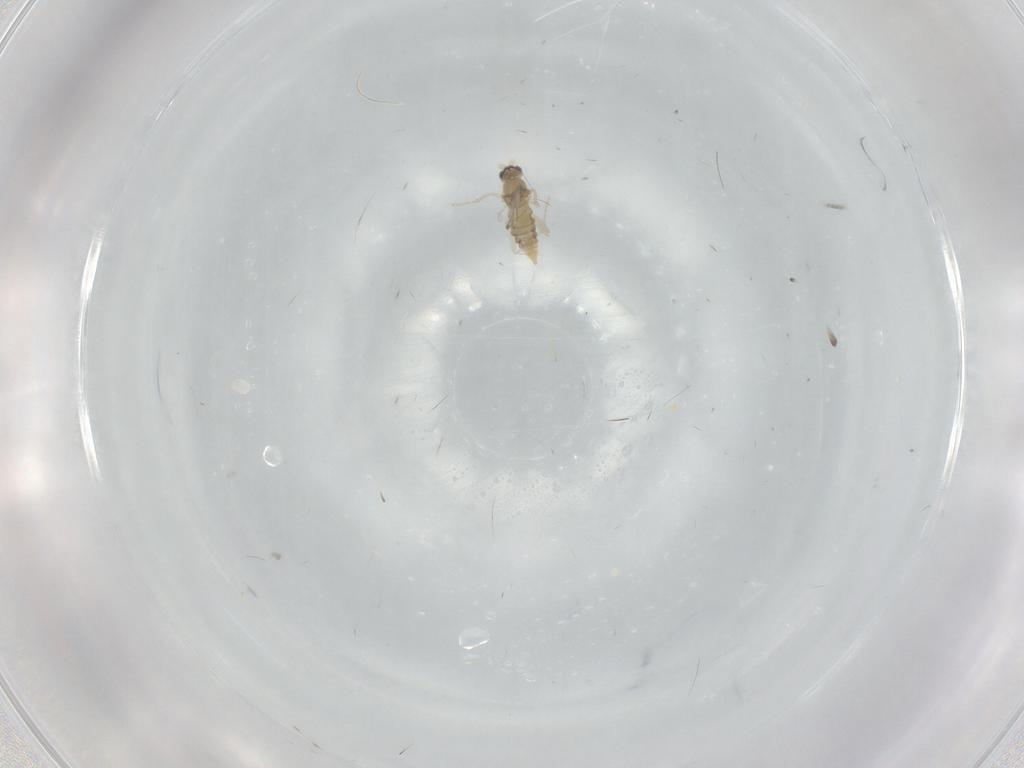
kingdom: Animalia
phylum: Arthropoda
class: Insecta
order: Diptera
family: Cecidomyiidae
